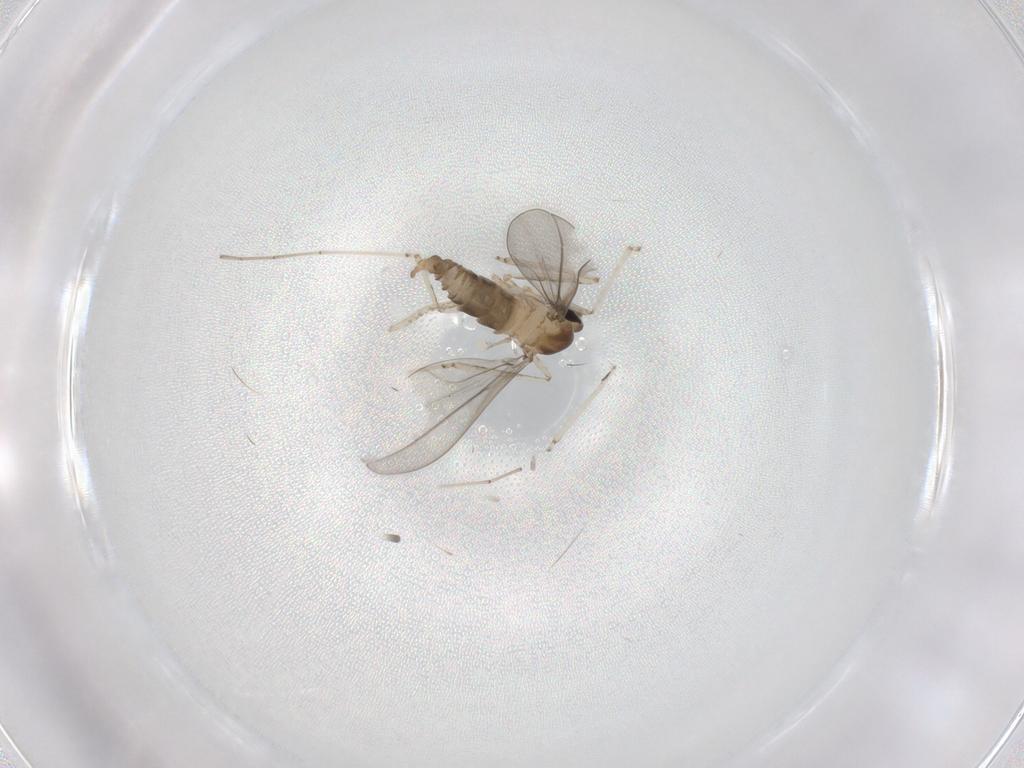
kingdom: Animalia
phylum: Arthropoda
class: Insecta
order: Diptera
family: Cecidomyiidae
